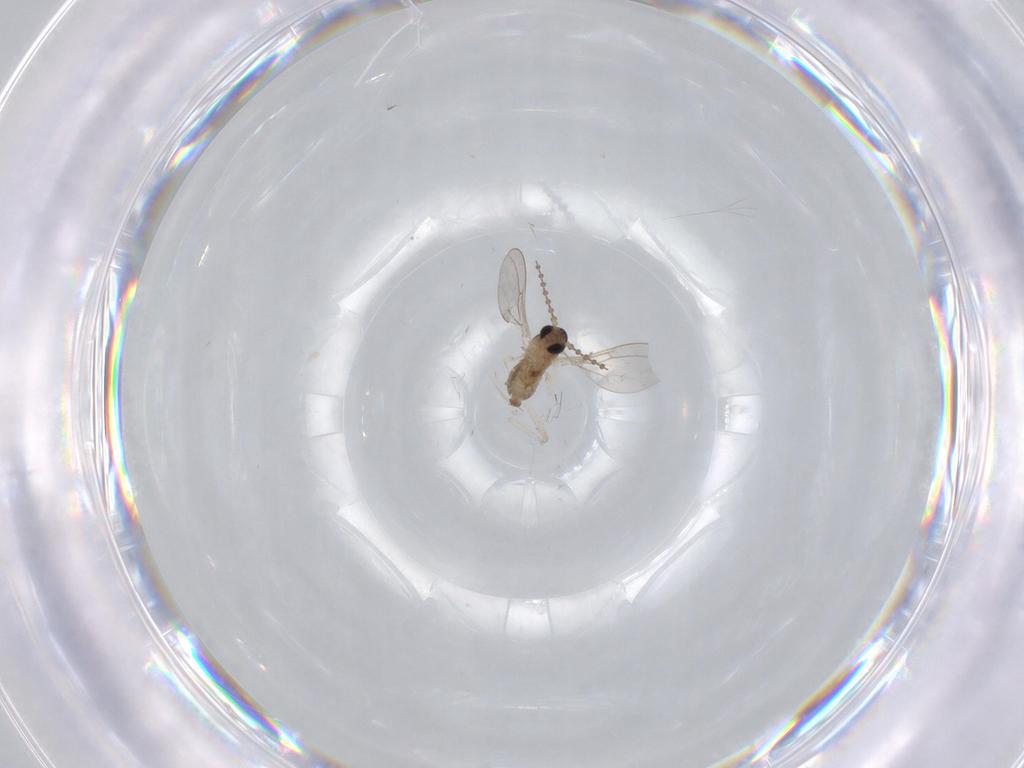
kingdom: Animalia
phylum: Arthropoda
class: Insecta
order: Diptera
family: Cecidomyiidae
